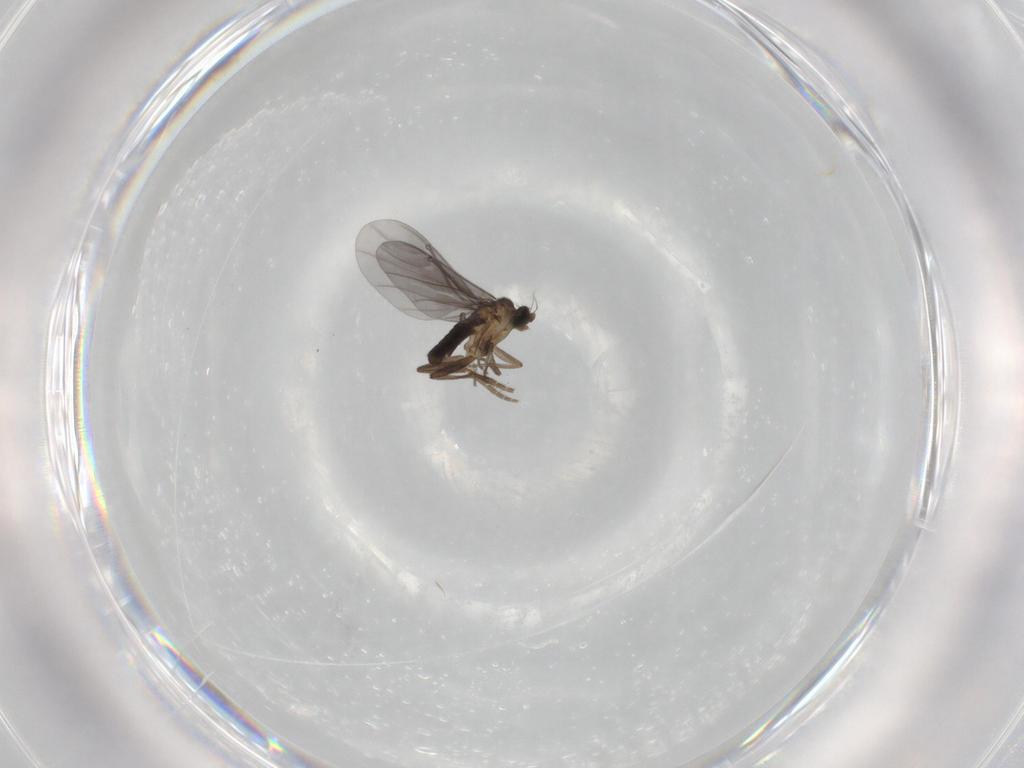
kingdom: Animalia
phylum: Arthropoda
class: Insecta
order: Diptera
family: Phoridae
